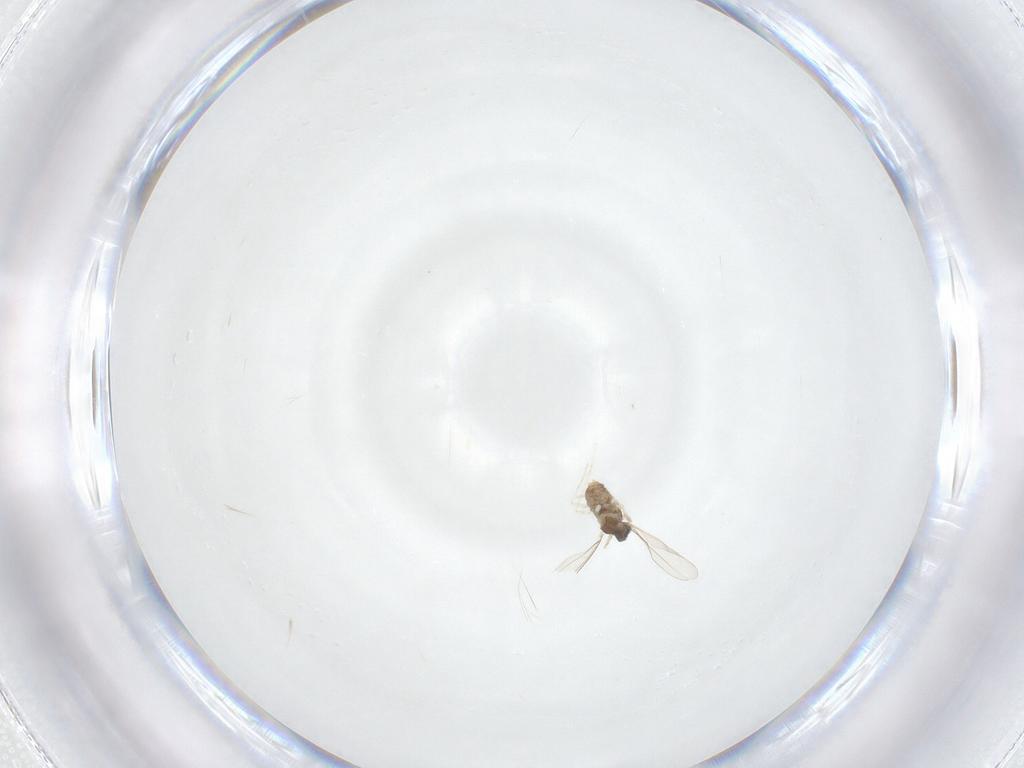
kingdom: Animalia
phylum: Arthropoda
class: Insecta
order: Diptera
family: Cecidomyiidae
